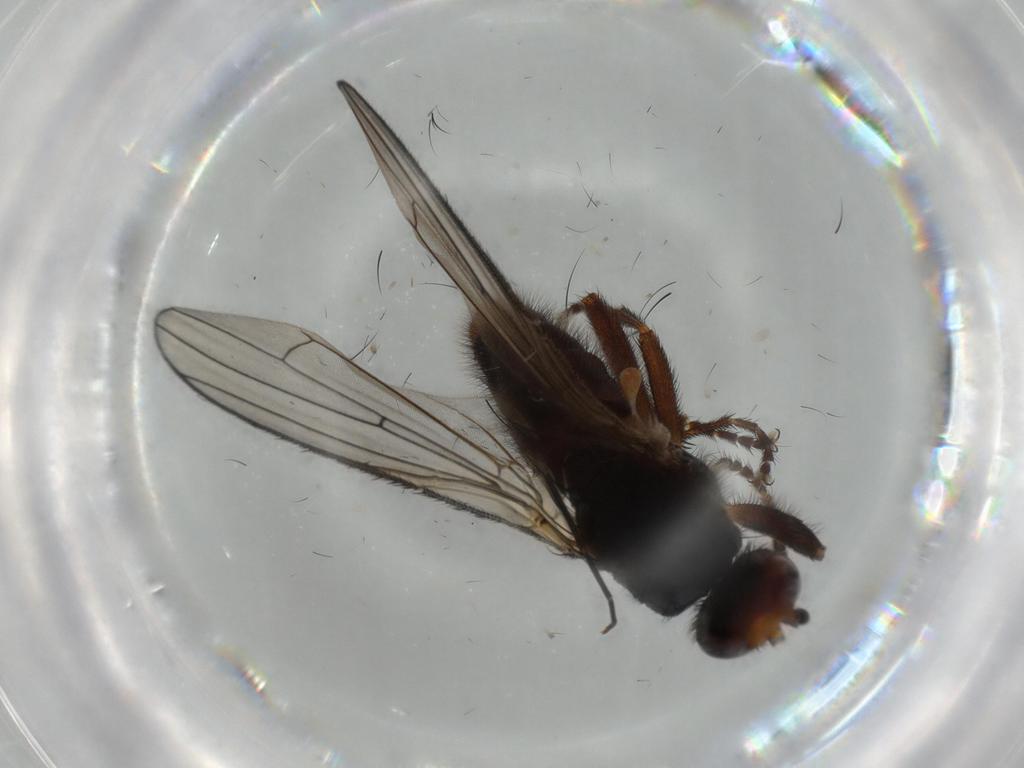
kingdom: Animalia
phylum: Arthropoda
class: Insecta
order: Diptera
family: Heleomyzidae
